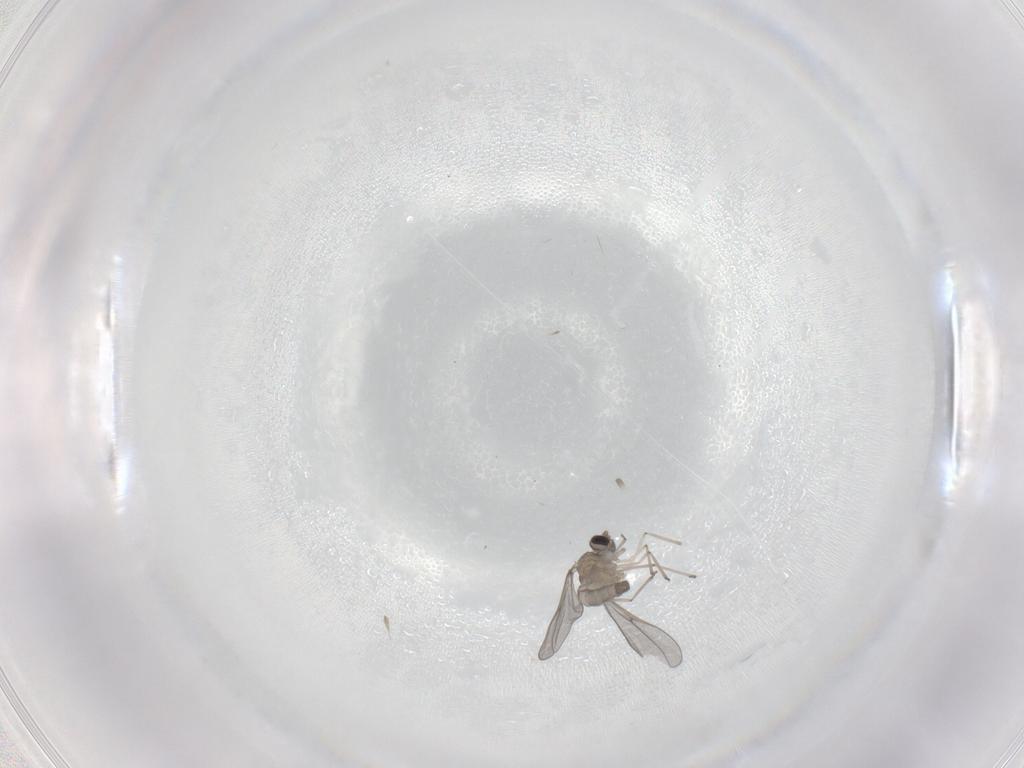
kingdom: Animalia
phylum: Arthropoda
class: Insecta
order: Diptera
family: Cecidomyiidae
